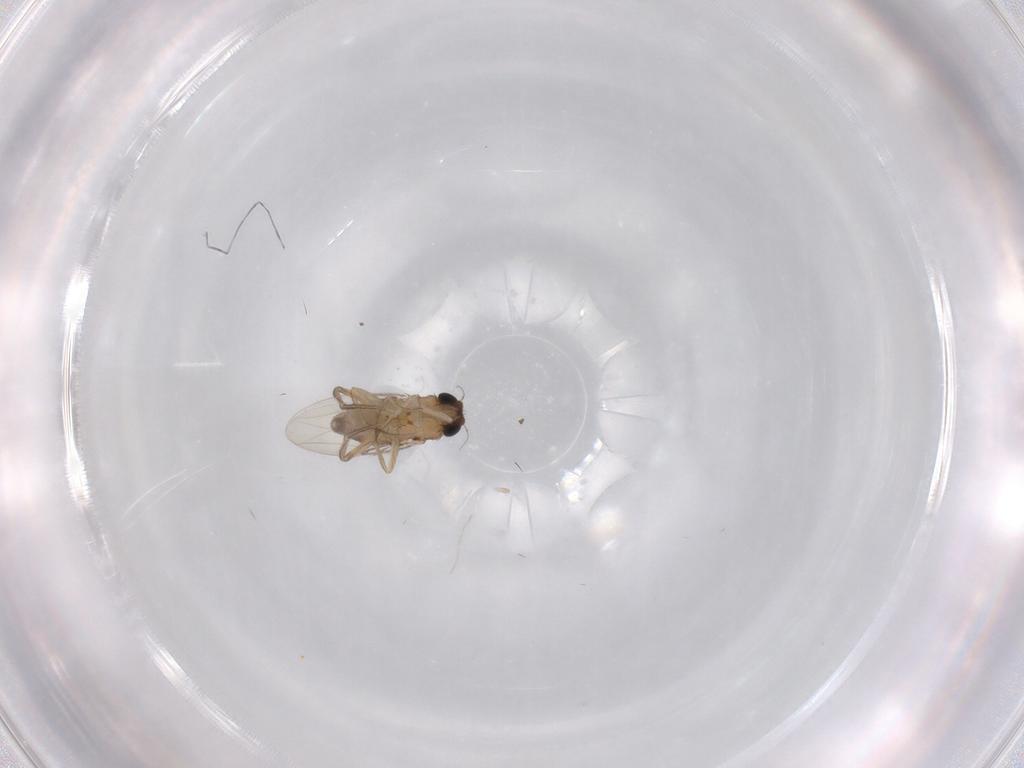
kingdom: Animalia
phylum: Arthropoda
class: Insecta
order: Diptera
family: Phoridae
